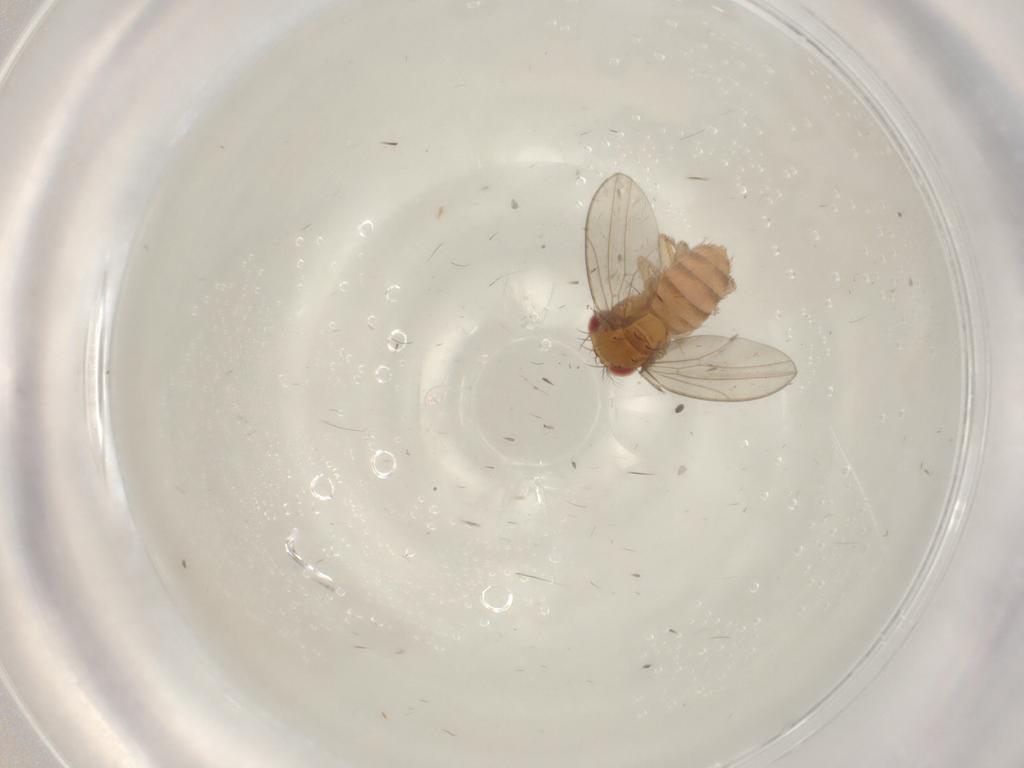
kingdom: Animalia
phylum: Arthropoda
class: Insecta
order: Diptera
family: Drosophilidae
